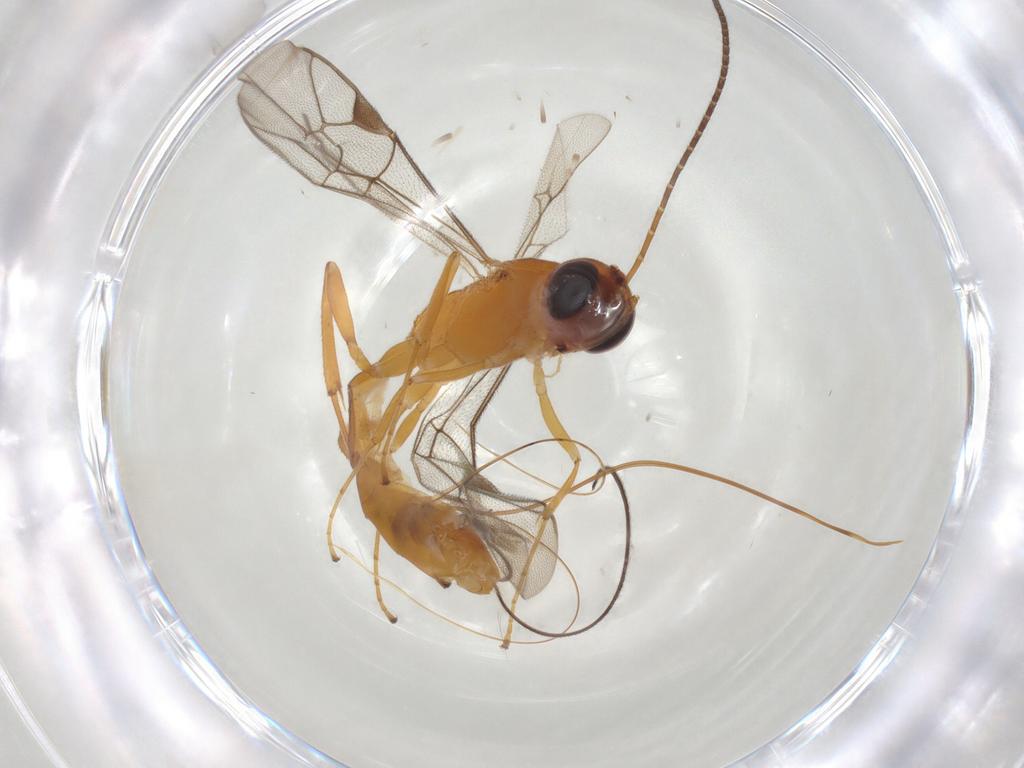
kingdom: Animalia
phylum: Arthropoda
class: Insecta
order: Hymenoptera
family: Ichneumonidae
